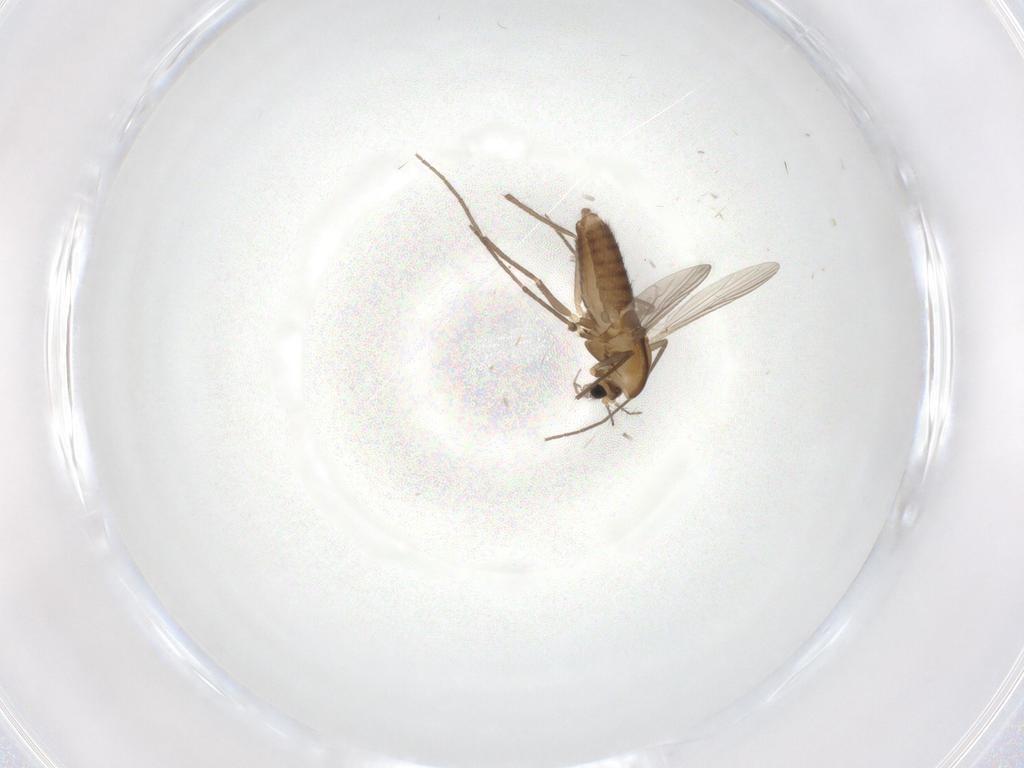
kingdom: Animalia
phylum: Arthropoda
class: Insecta
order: Diptera
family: Chironomidae
